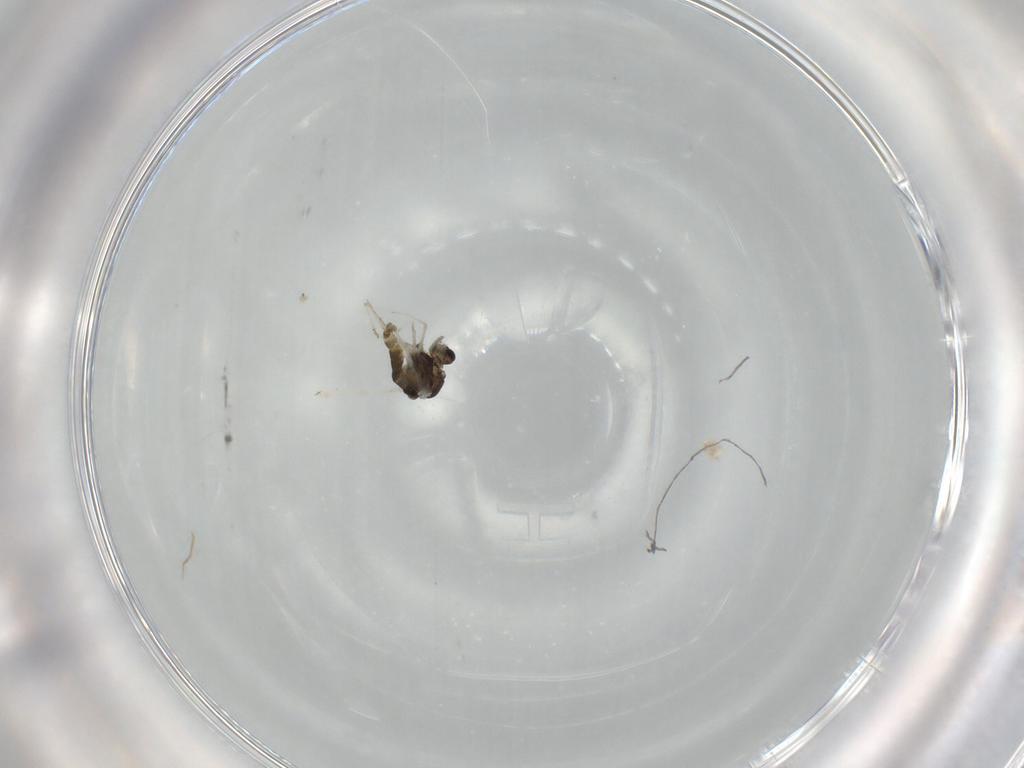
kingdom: Animalia
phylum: Arthropoda
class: Insecta
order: Diptera
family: Chironomidae
